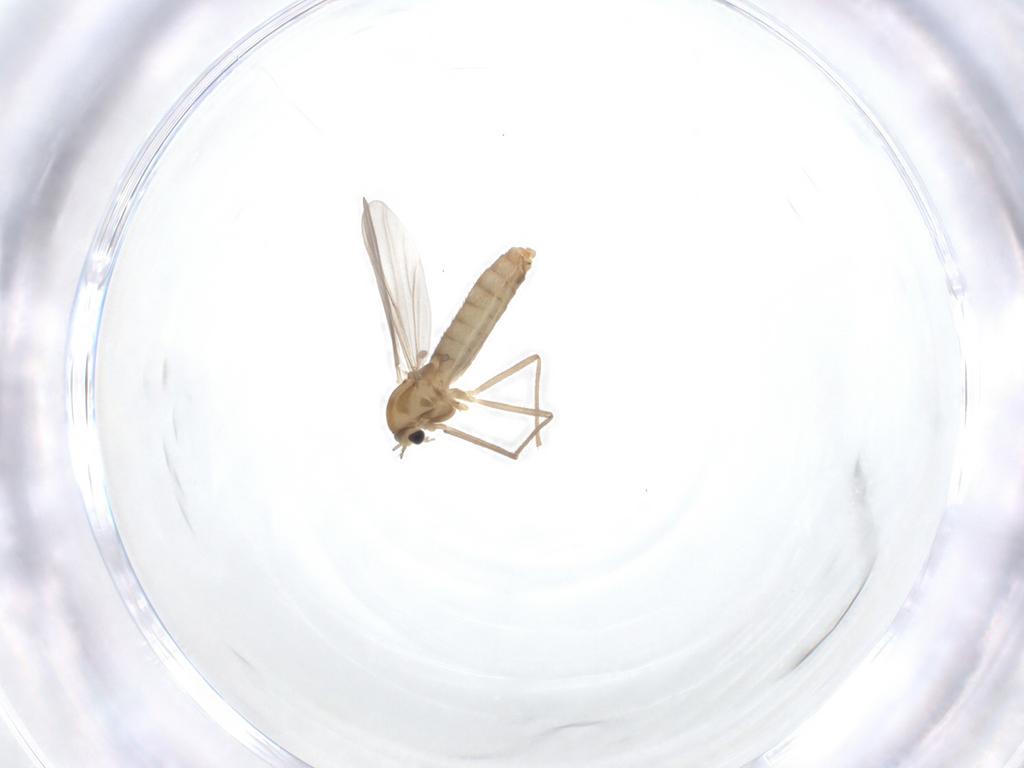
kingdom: Animalia
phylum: Arthropoda
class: Insecta
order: Diptera
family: Chironomidae
